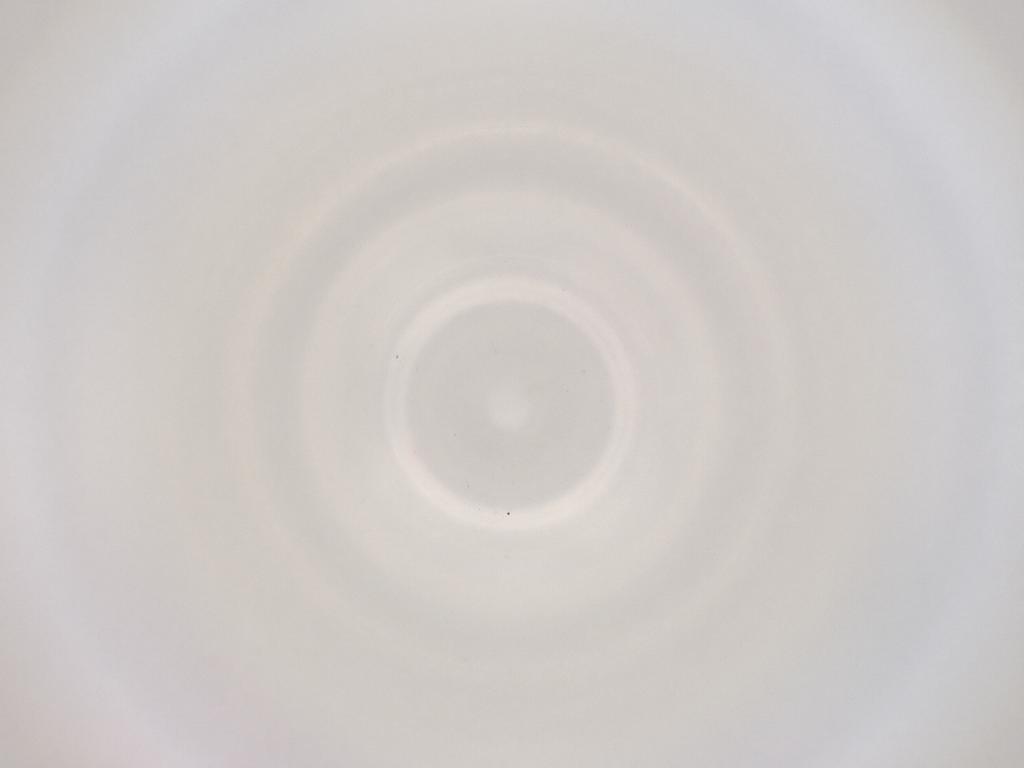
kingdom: Animalia
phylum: Arthropoda
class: Insecta
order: Diptera
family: Cecidomyiidae
